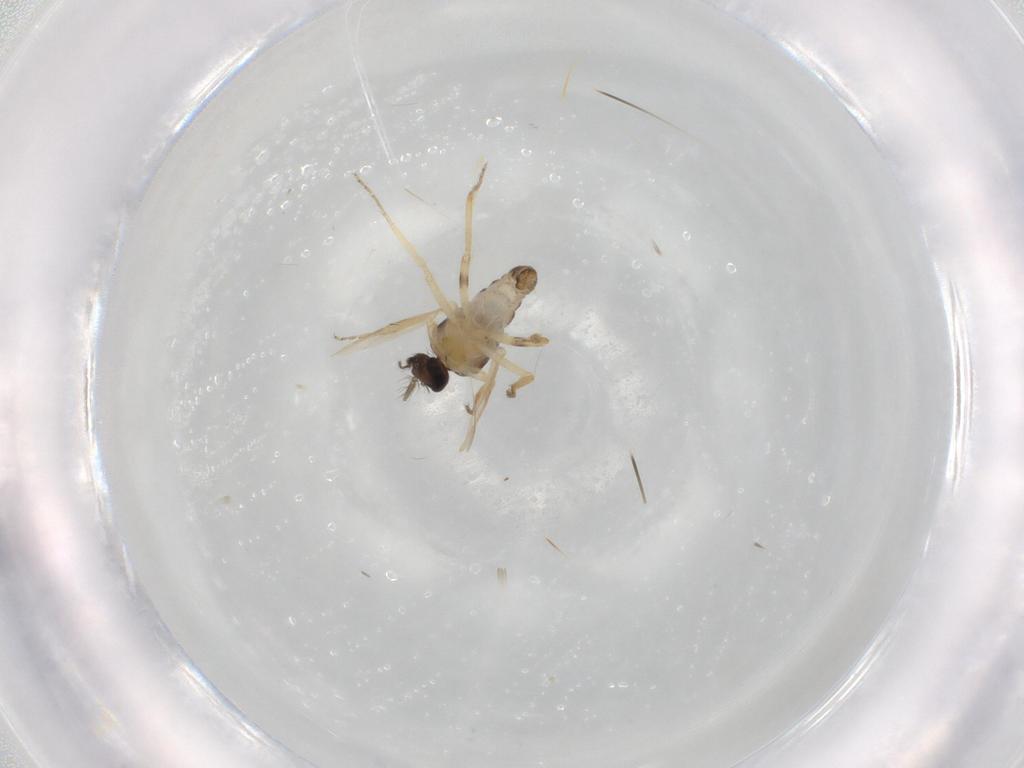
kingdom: Animalia
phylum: Arthropoda
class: Insecta
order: Diptera
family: Ceratopogonidae
